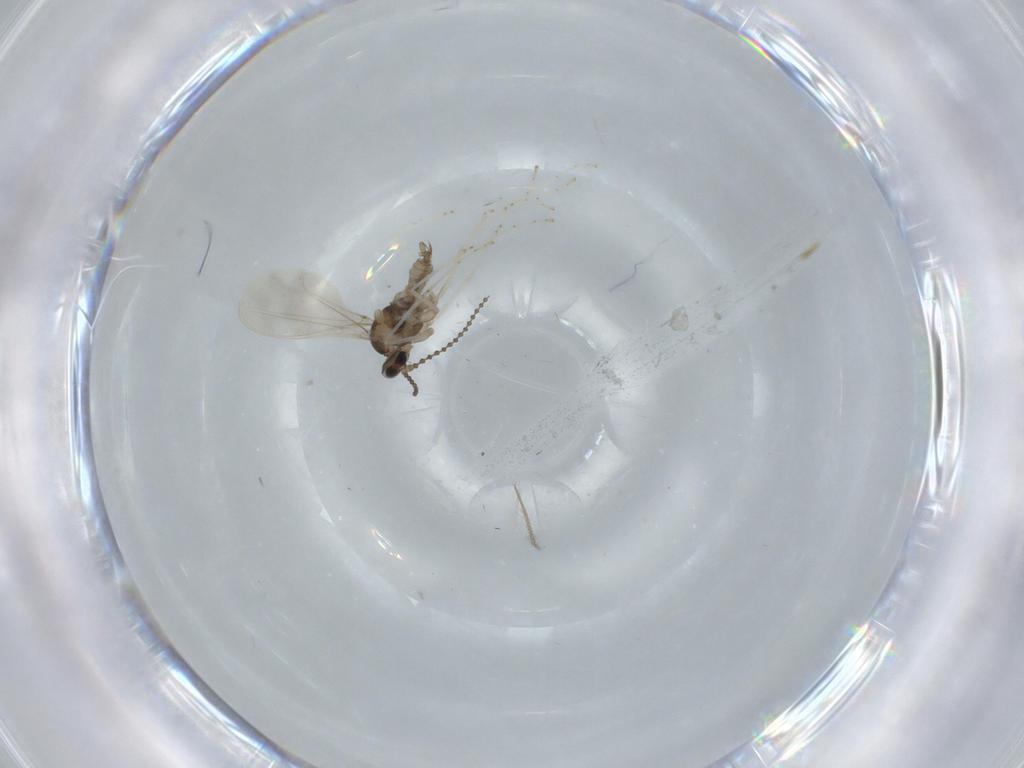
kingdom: Animalia
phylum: Arthropoda
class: Insecta
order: Diptera
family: Cecidomyiidae
